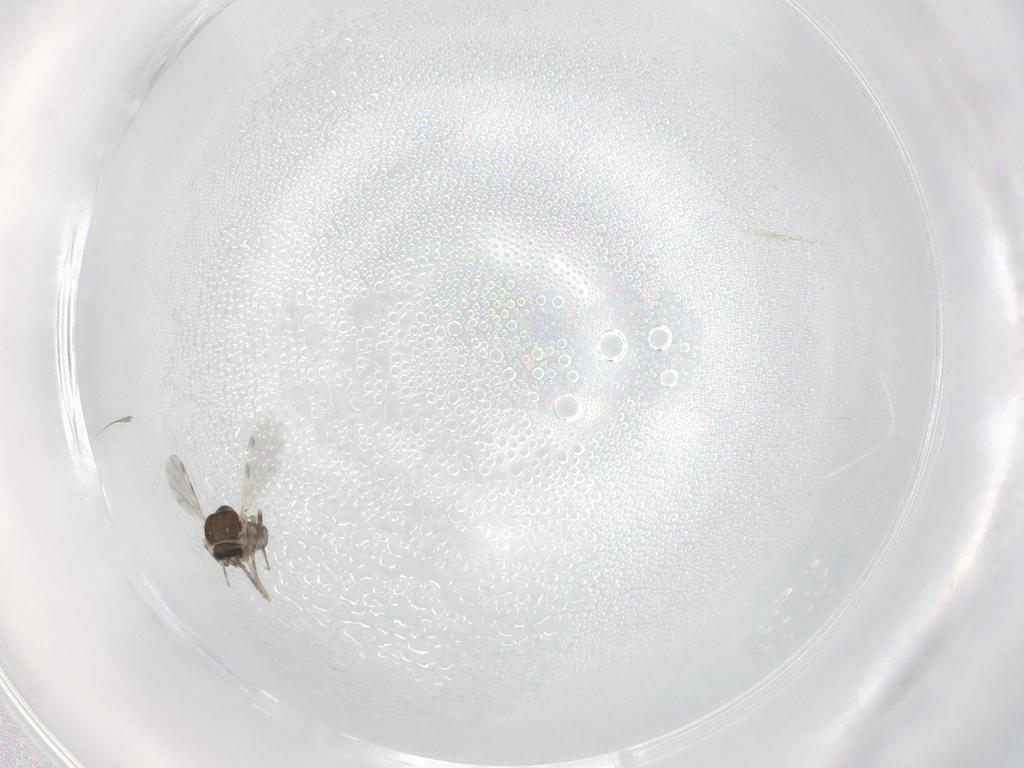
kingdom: Animalia
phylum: Arthropoda
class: Insecta
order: Diptera
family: Ceratopogonidae
